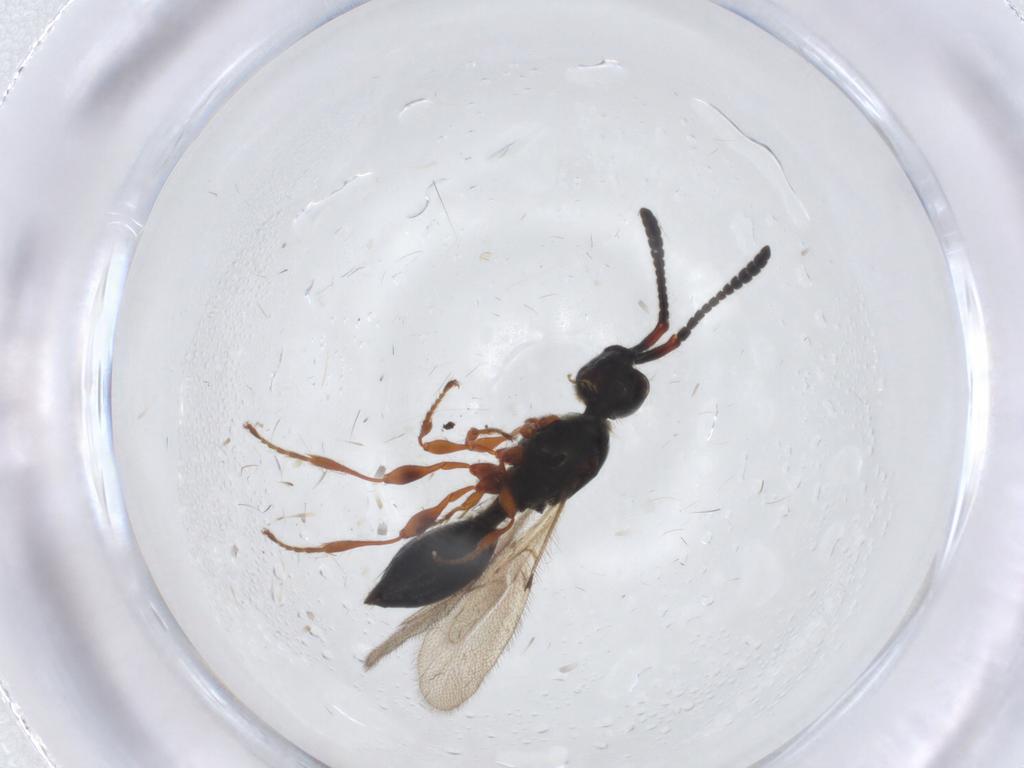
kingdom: Animalia
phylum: Arthropoda
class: Insecta
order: Hymenoptera
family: Diapriidae
